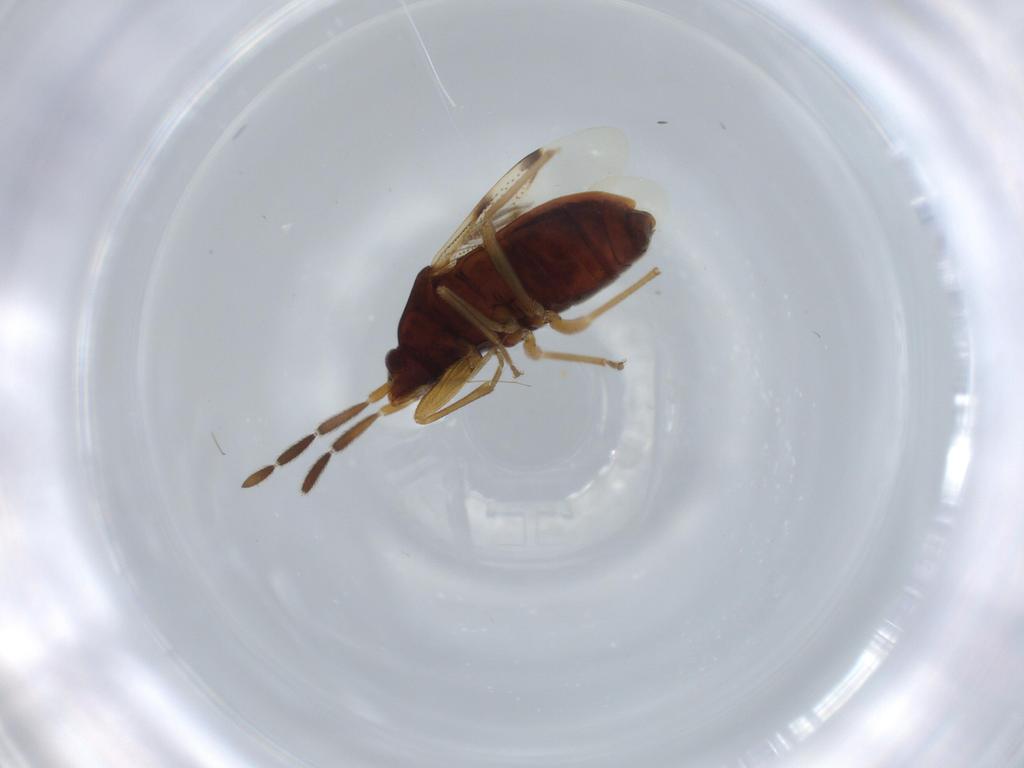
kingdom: Animalia
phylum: Arthropoda
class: Insecta
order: Hemiptera
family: Rhyparochromidae
